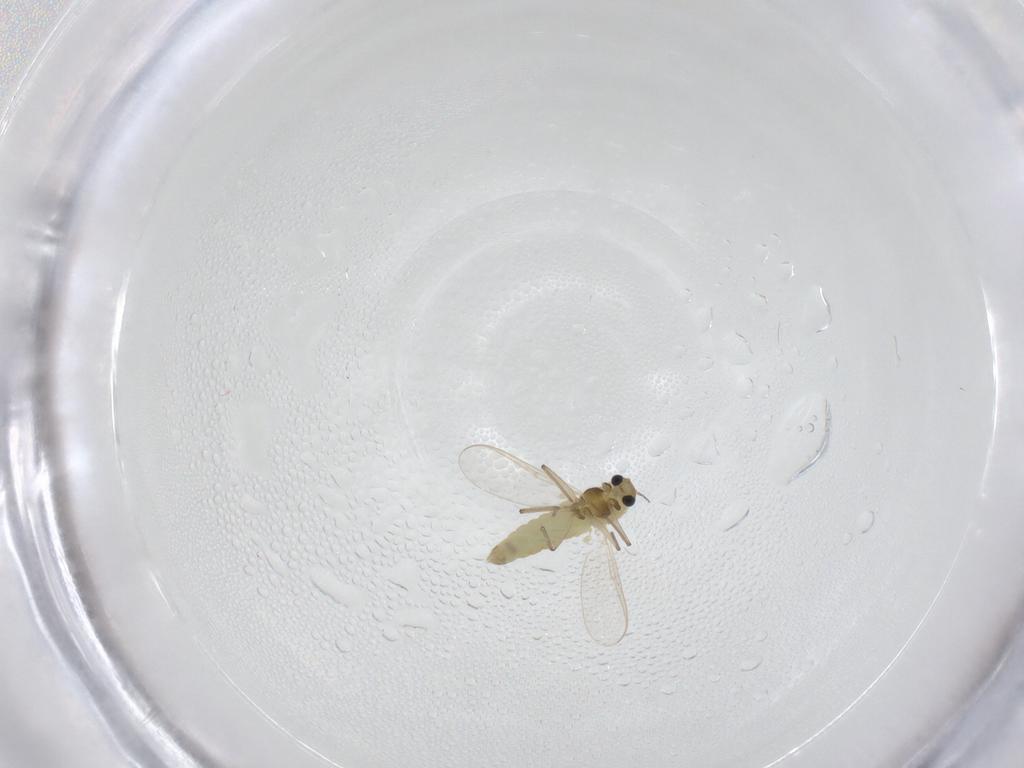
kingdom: Animalia
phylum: Arthropoda
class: Insecta
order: Diptera
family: Chironomidae
